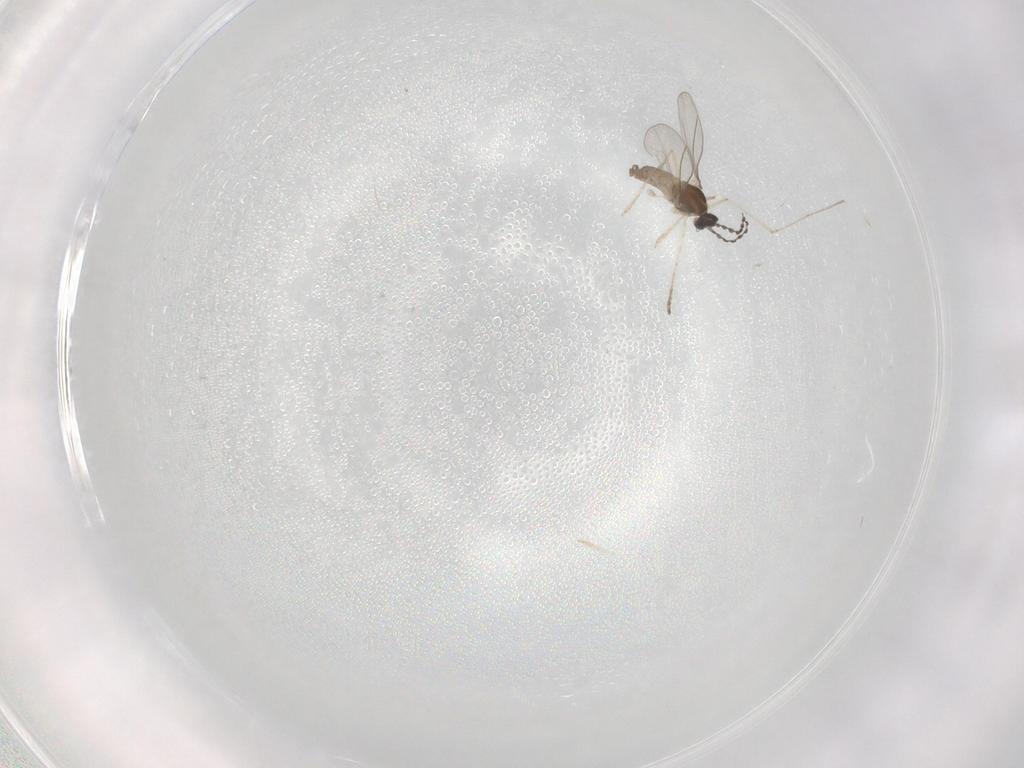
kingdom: Animalia
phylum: Arthropoda
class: Insecta
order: Diptera
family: Cecidomyiidae
